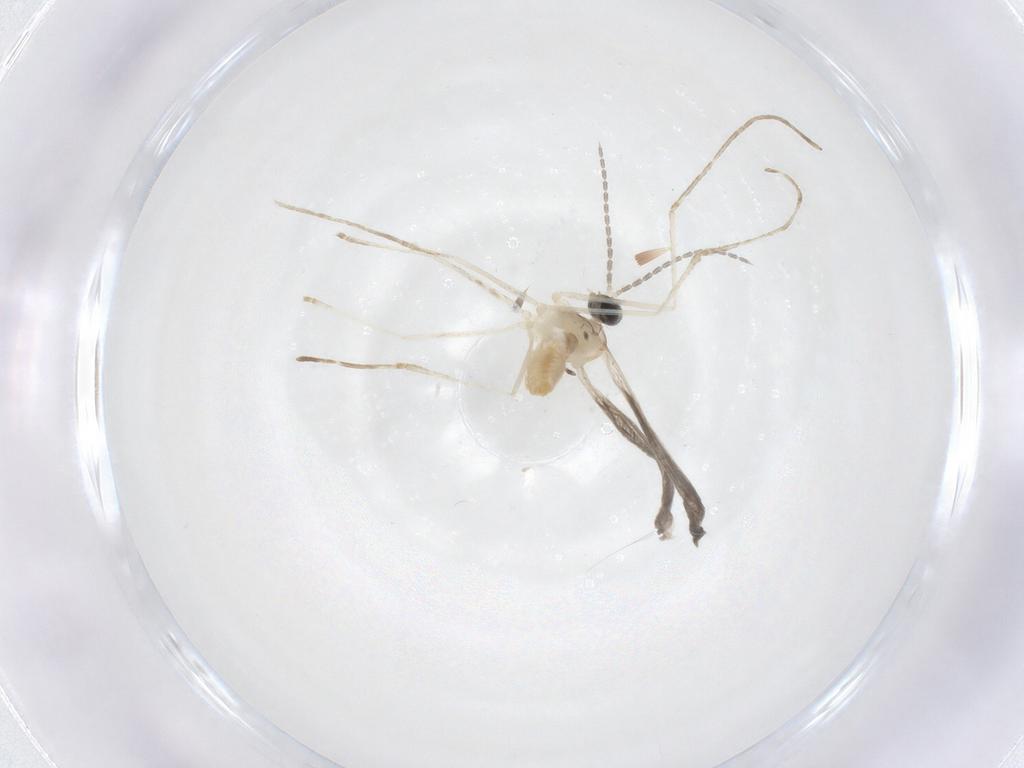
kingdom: Animalia
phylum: Arthropoda
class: Insecta
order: Diptera
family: Cecidomyiidae
